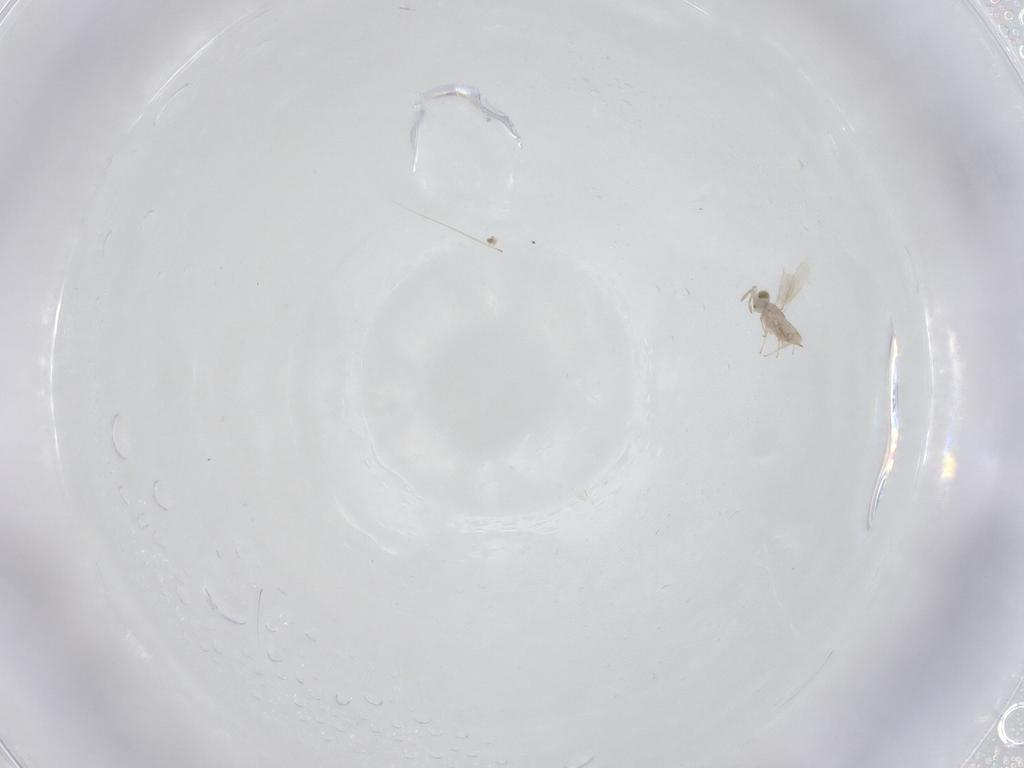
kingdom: Animalia
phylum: Arthropoda
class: Insecta
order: Hymenoptera
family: Aphelinidae
